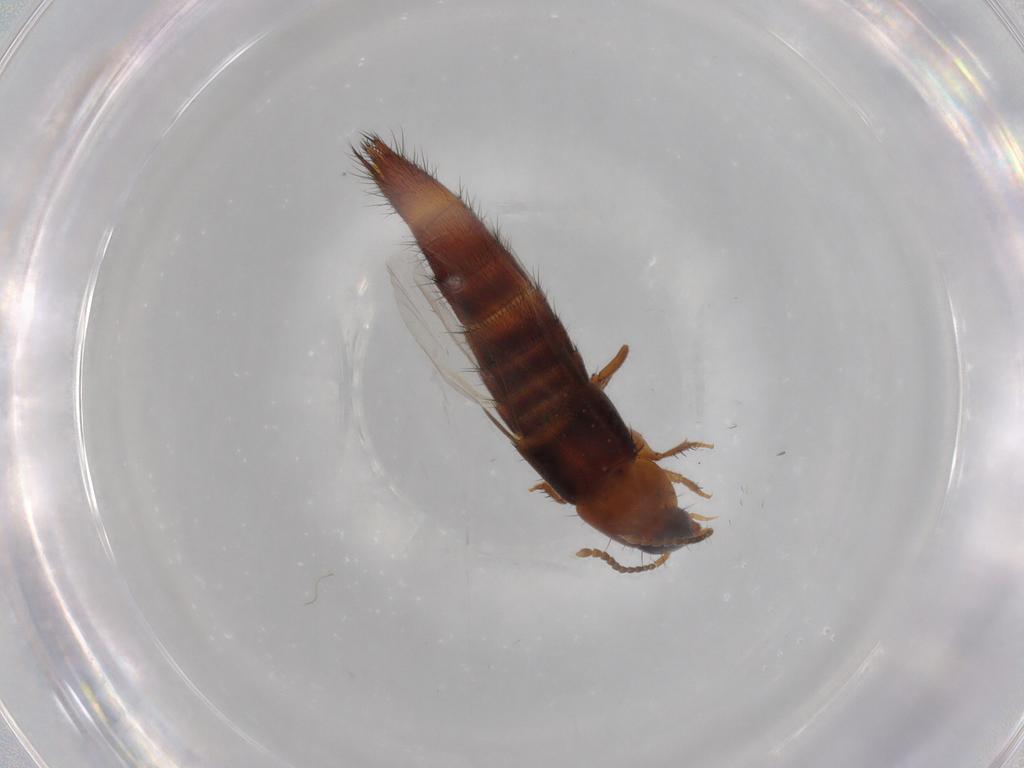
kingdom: Animalia
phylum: Arthropoda
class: Insecta
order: Coleoptera
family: Staphylinidae
